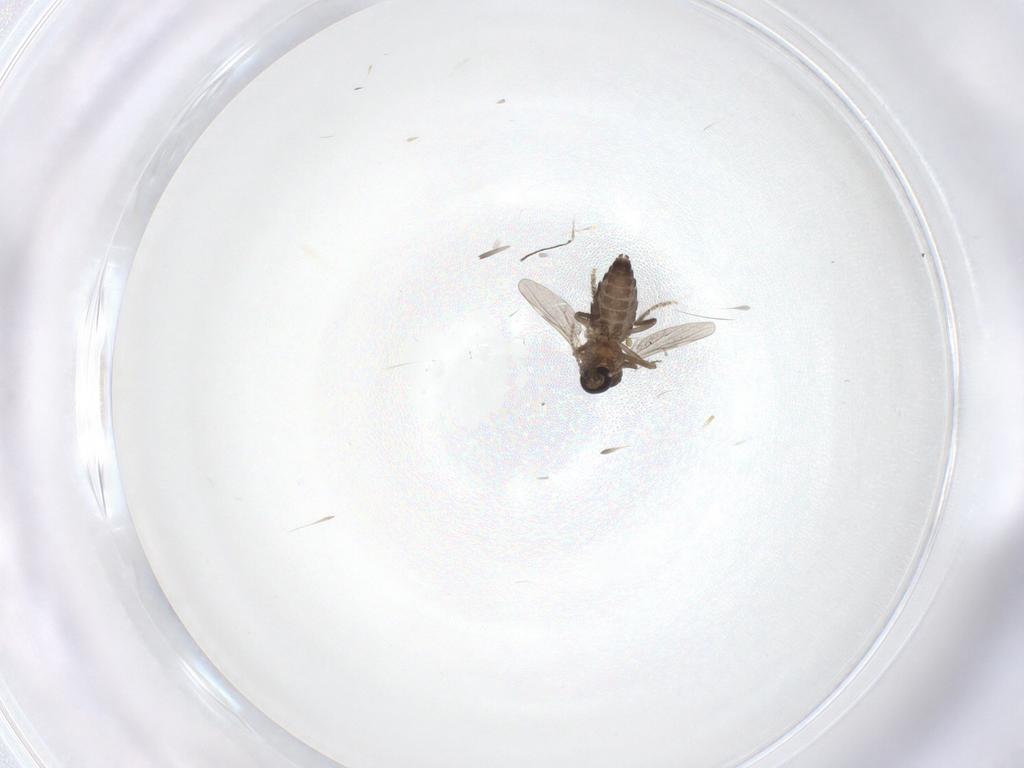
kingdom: Animalia
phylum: Arthropoda
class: Insecta
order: Diptera
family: Ceratopogonidae
